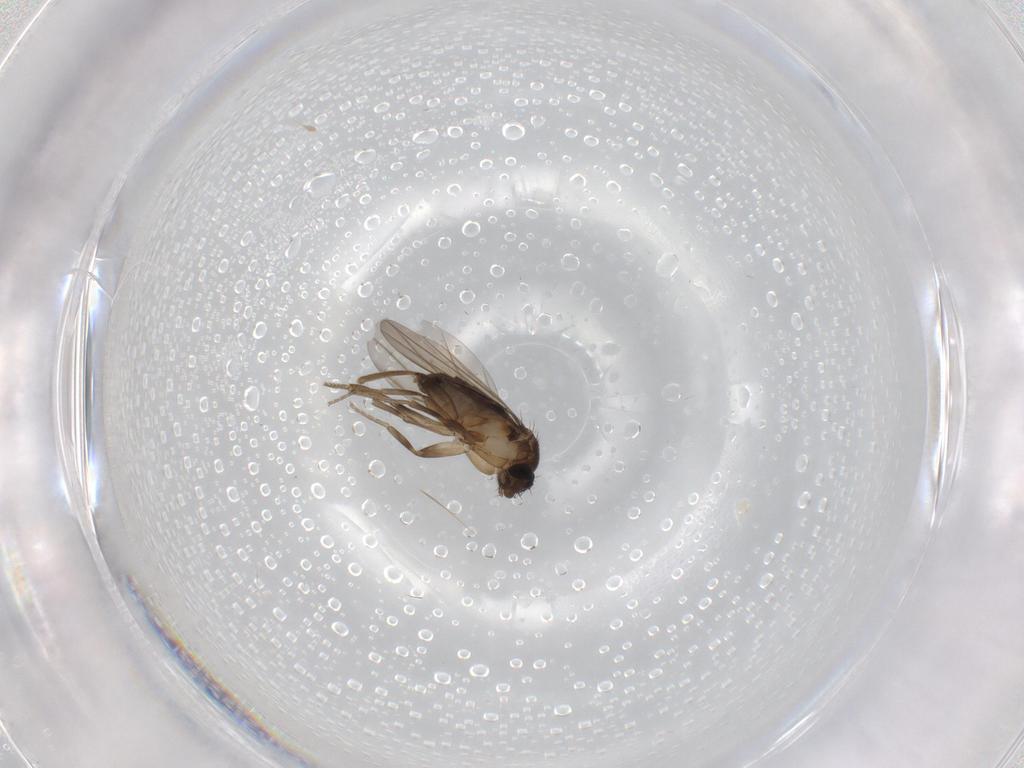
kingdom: Animalia
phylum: Arthropoda
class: Insecta
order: Diptera
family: Phoridae
